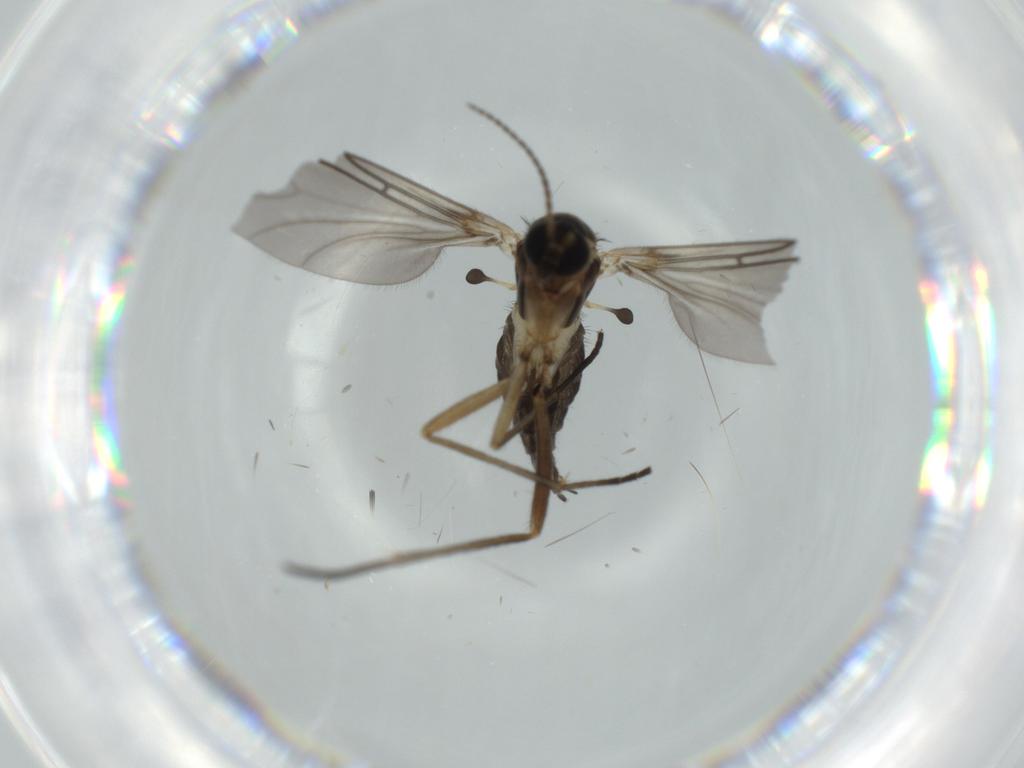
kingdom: Animalia
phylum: Arthropoda
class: Insecta
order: Diptera
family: Sciaridae
